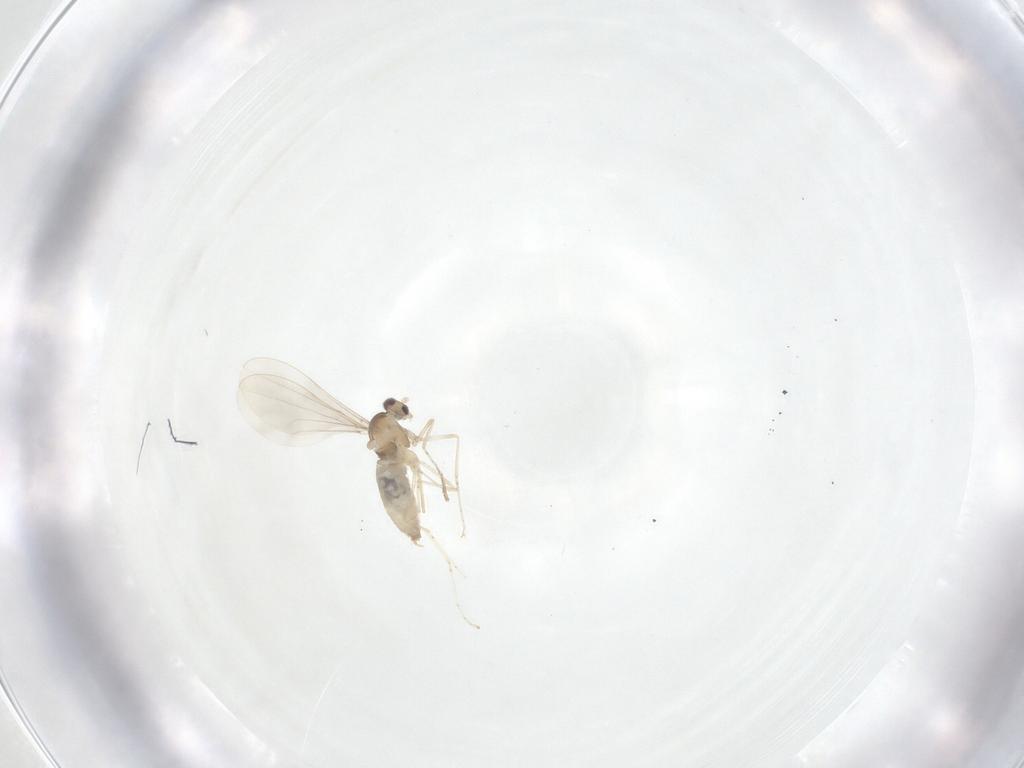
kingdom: Animalia
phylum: Arthropoda
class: Insecta
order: Diptera
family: Cecidomyiidae
